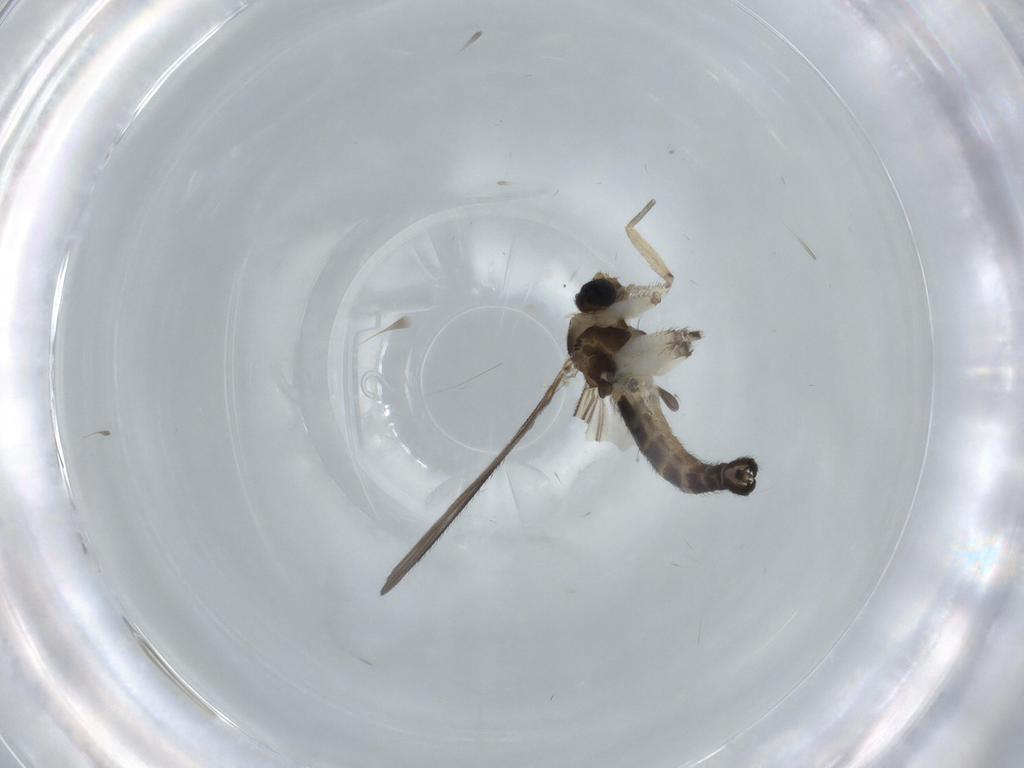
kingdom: Animalia
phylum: Arthropoda
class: Insecta
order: Diptera
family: Sciaridae
